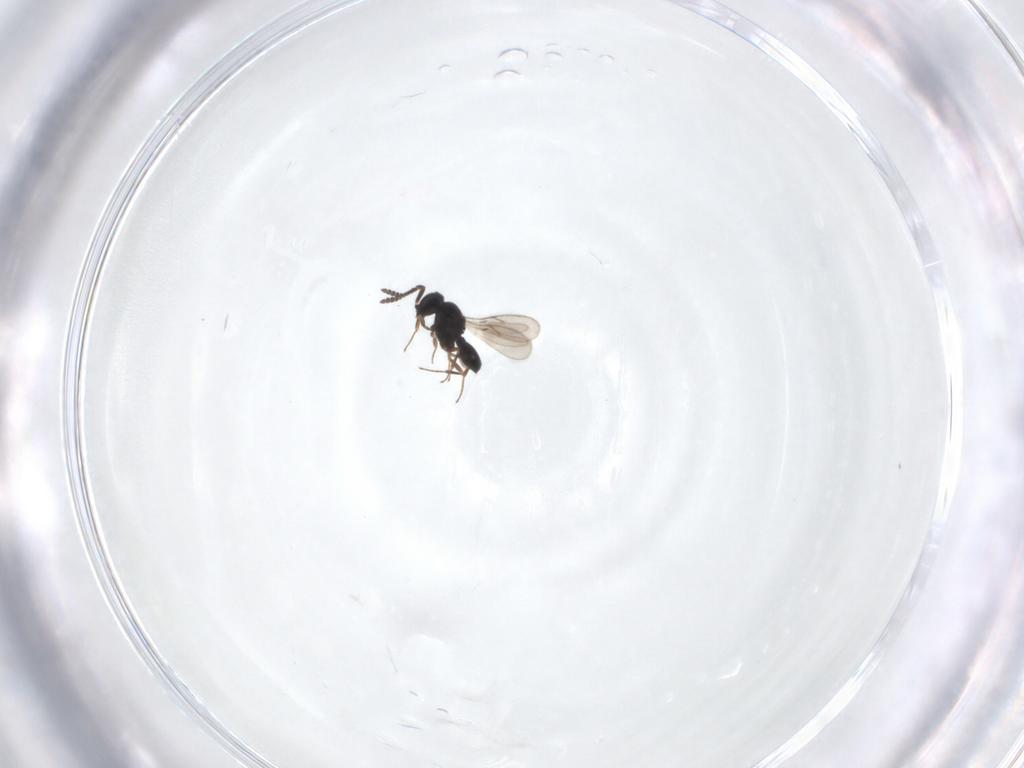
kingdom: Animalia
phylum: Arthropoda
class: Insecta
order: Hymenoptera
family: Scelionidae
